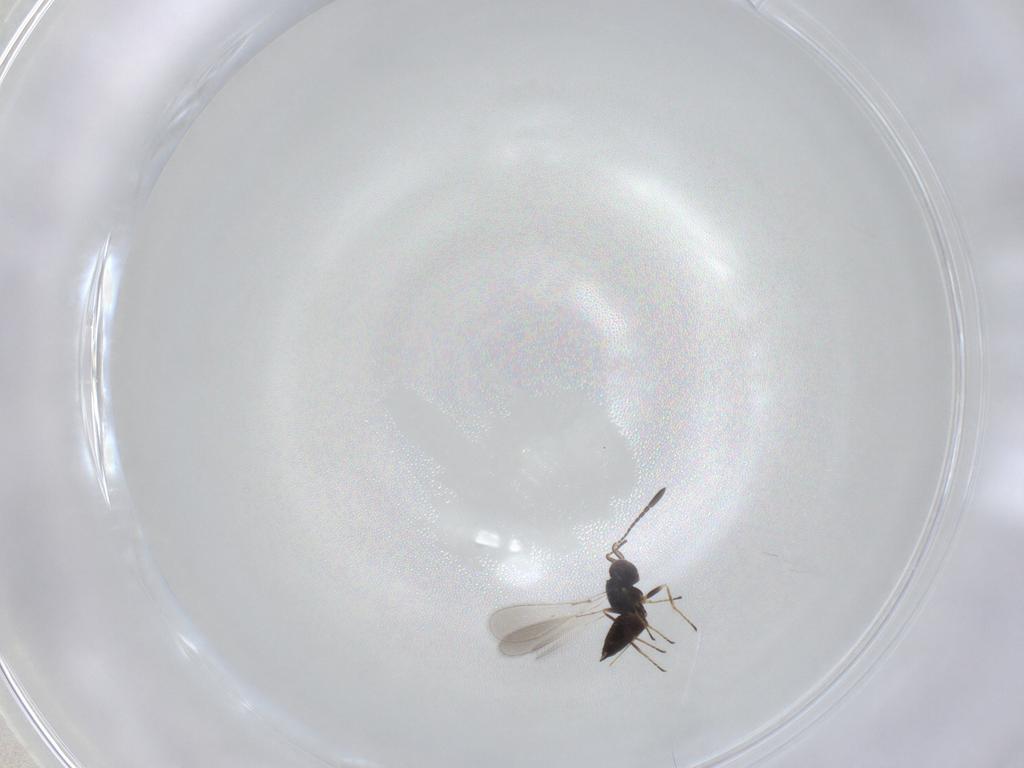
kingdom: Animalia
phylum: Arthropoda
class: Insecta
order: Hymenoptera
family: Mymaridae
